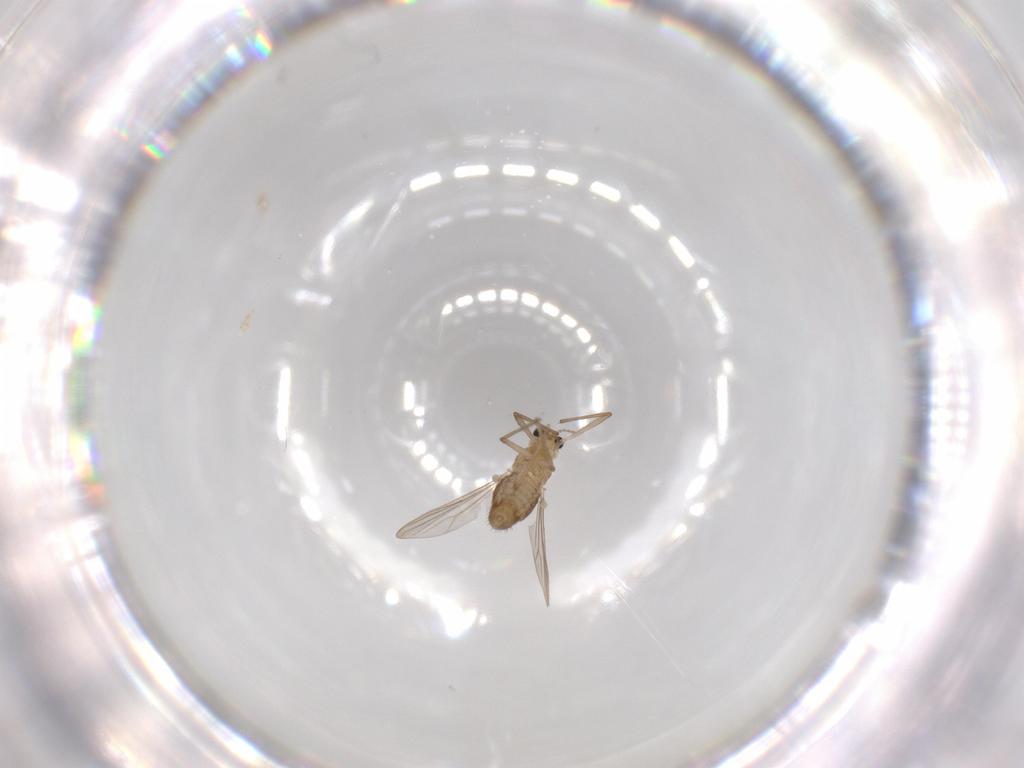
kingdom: Animalia
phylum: Arthropoda
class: Insecta
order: Diptera
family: Chironomidae
